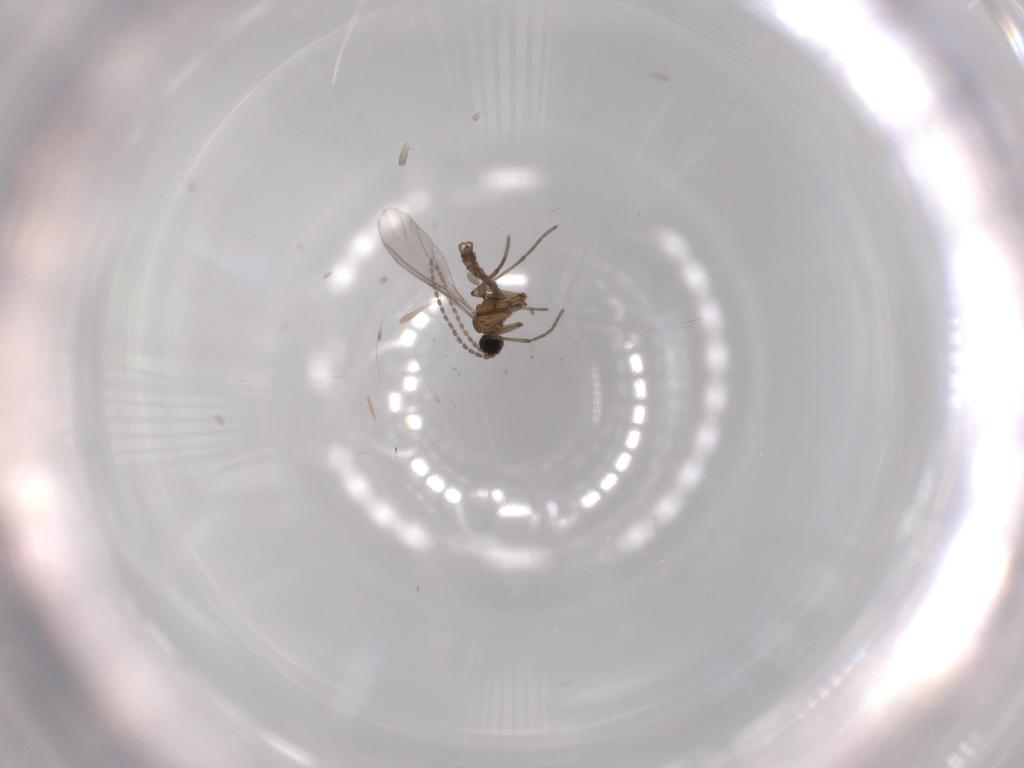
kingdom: Animalia
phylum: Arthropoda
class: Insecta
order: Diptera
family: Sciaridae
